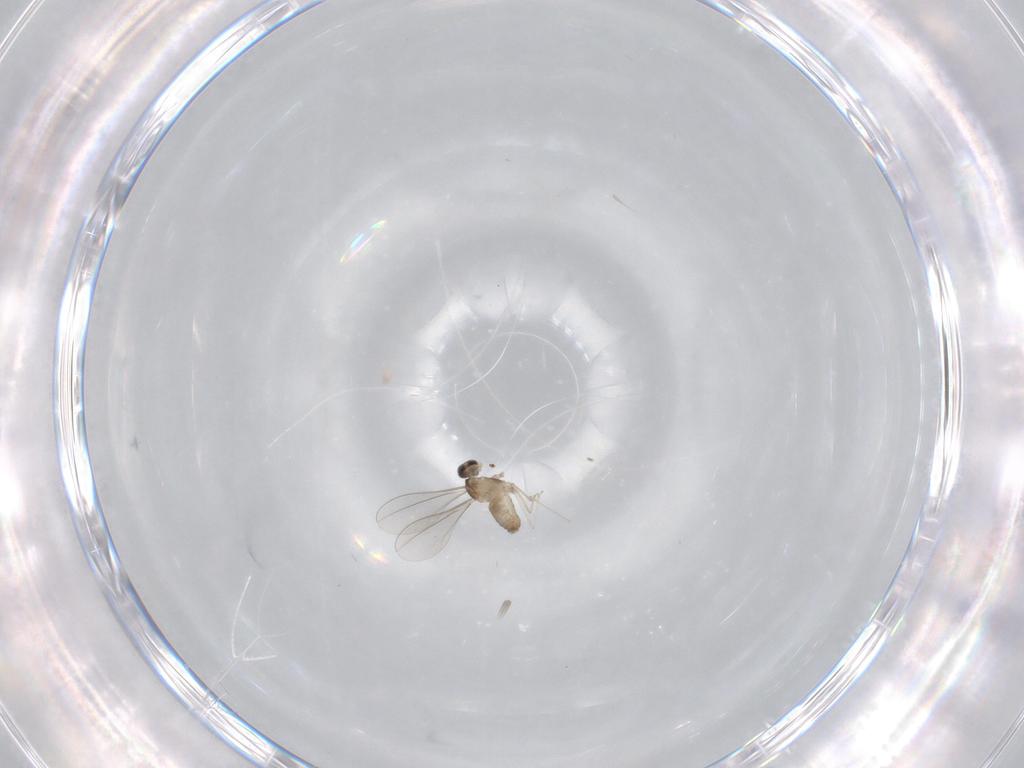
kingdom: Animalia
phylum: Arthropoda
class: Insecta
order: Diptera
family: Cecidomyiidae
